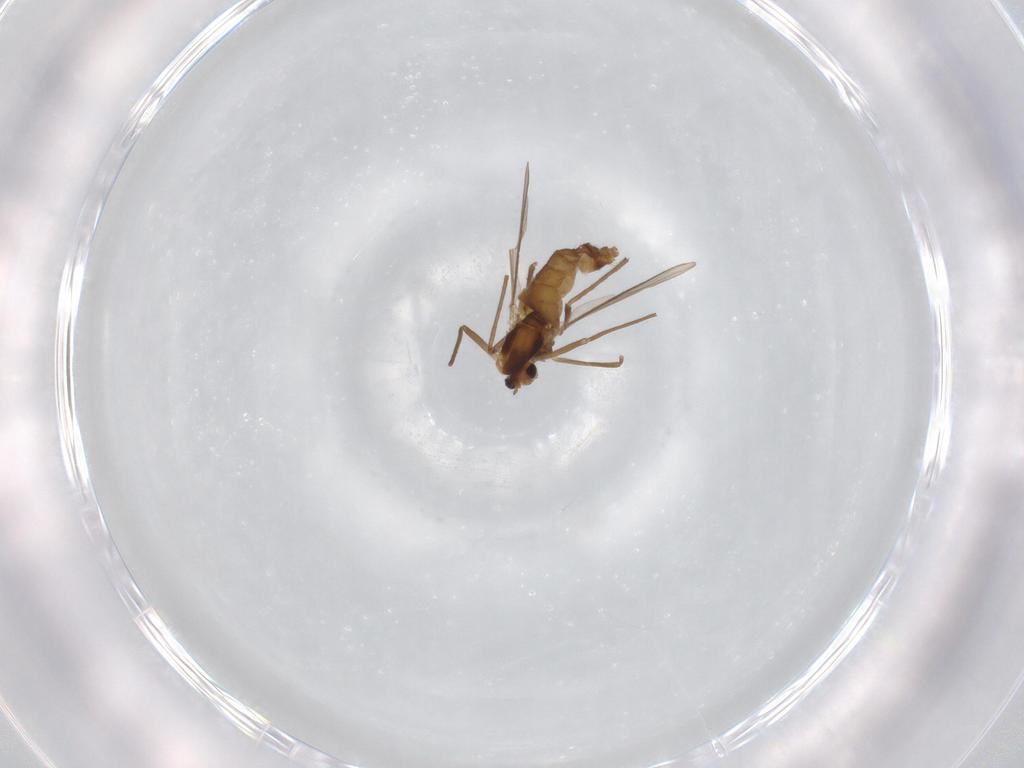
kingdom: Animalia
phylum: Arthropoda
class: Insecta
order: Diptera
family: Chironomidae
